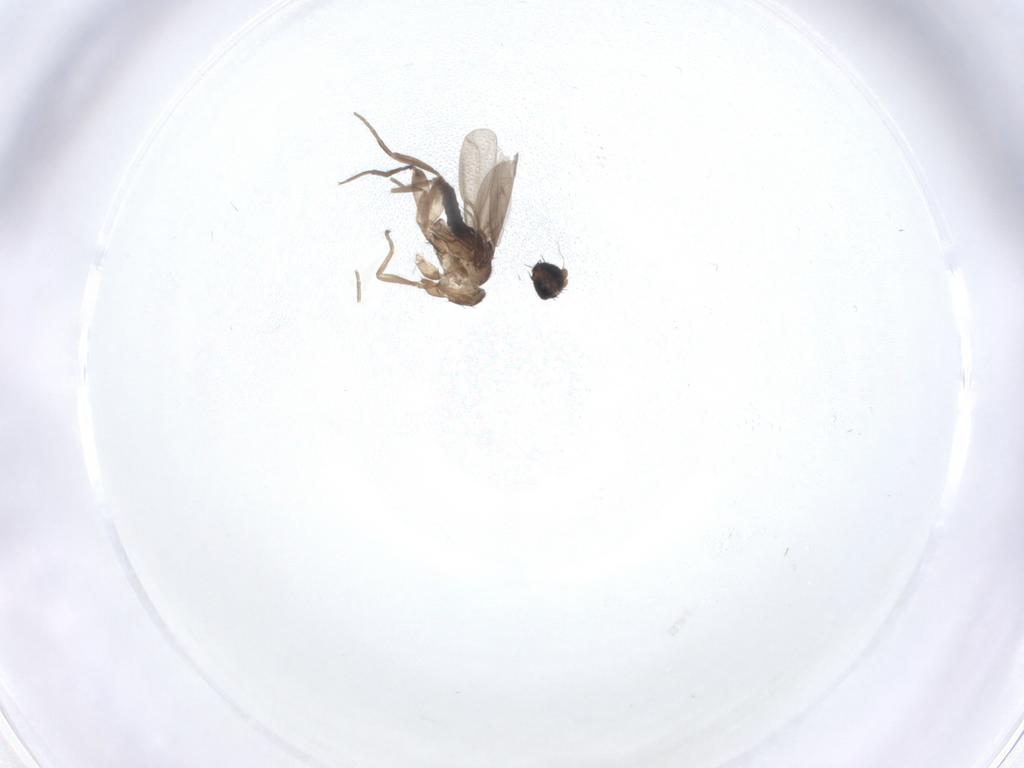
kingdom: Animalia
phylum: Arthropoda
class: Insecta
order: Diptera
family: Phoridae
